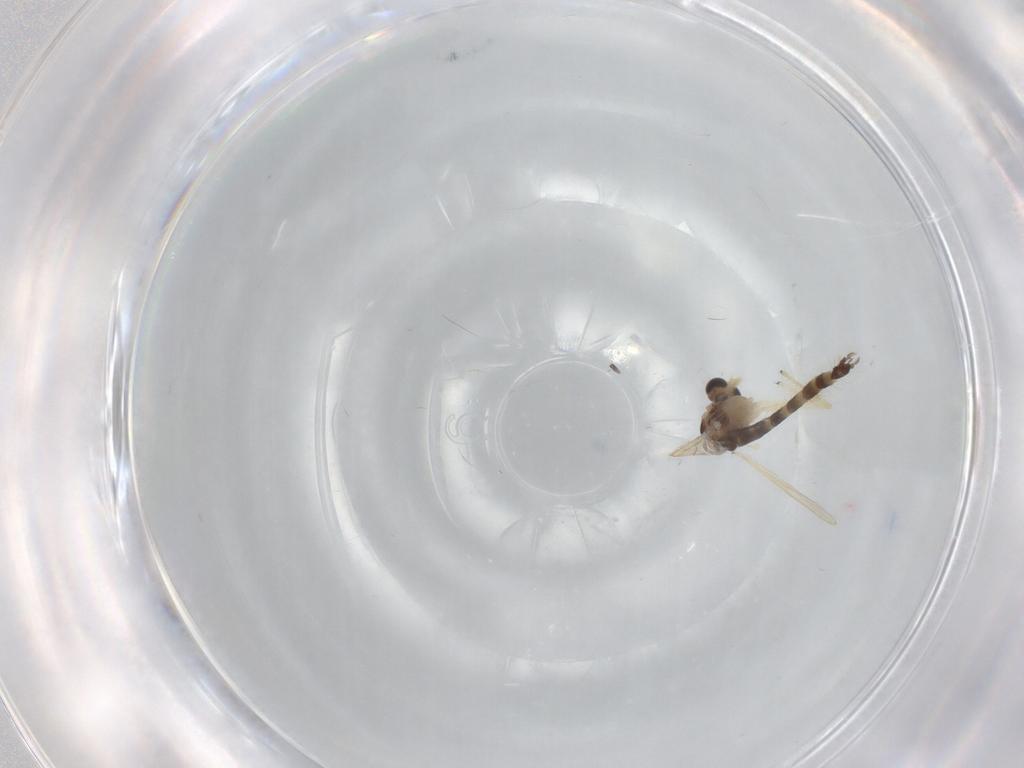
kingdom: Animalia
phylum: Arthropoda
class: Insecta
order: Diptera
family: Chironomidae
